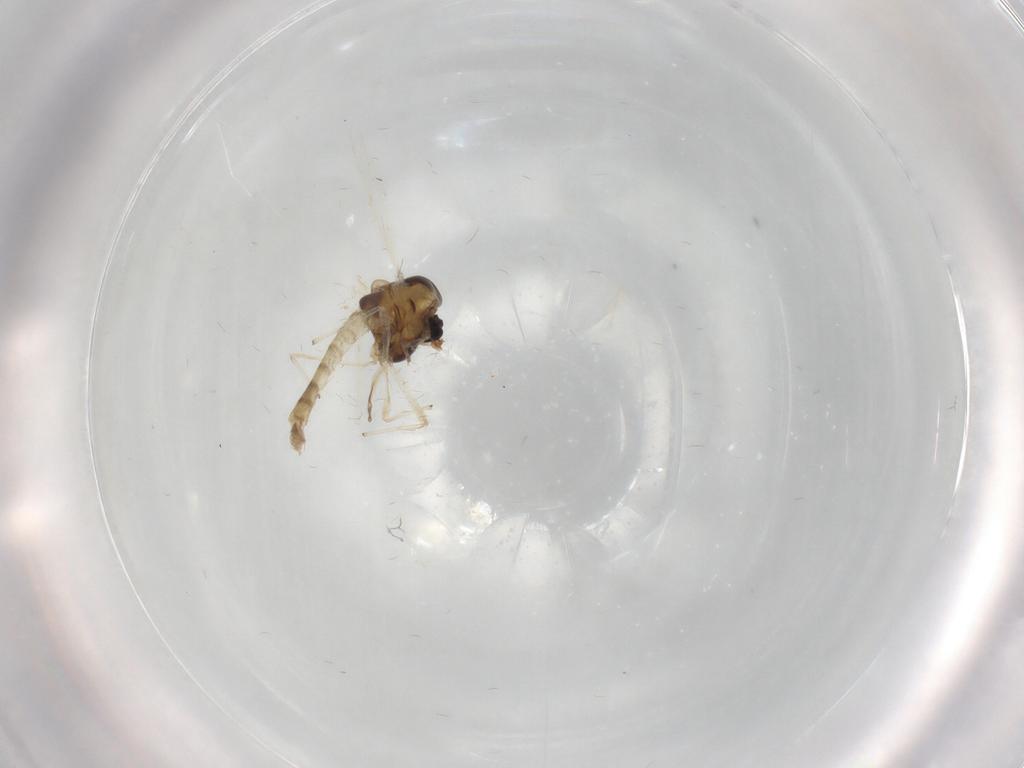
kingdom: Animalia
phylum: Arthropoda
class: Insecta
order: Diptera
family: Chironomidae
